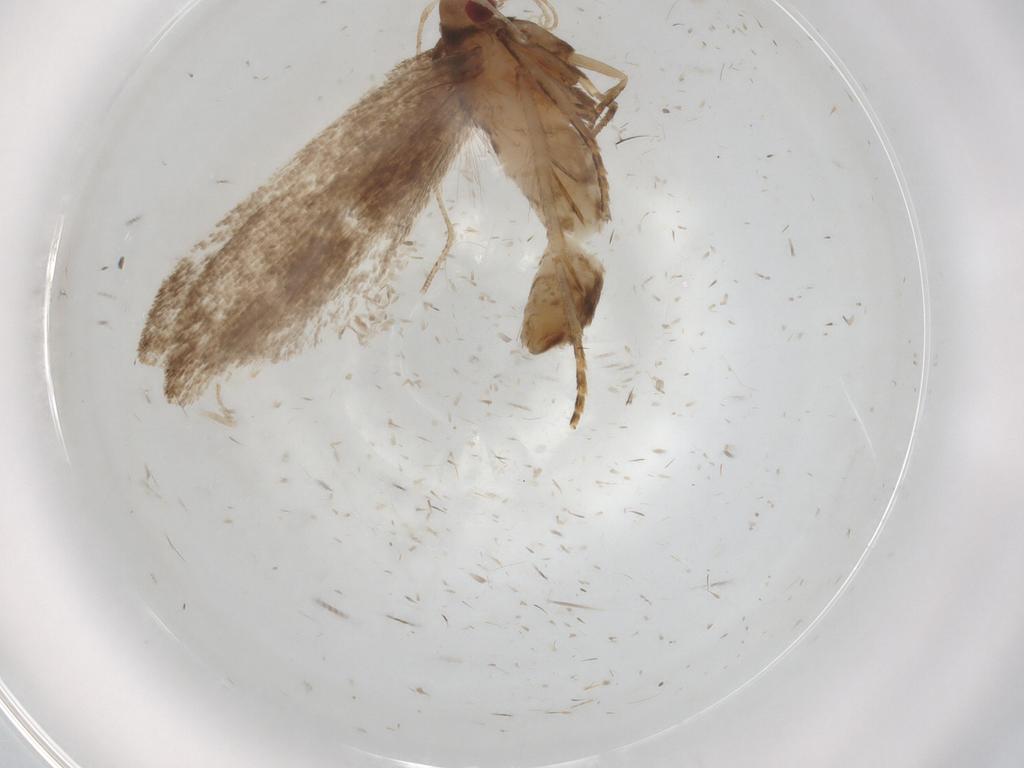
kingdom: Animalia
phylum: Arthropoda
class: Insecta
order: Lepidoptera
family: Gelechiidae
